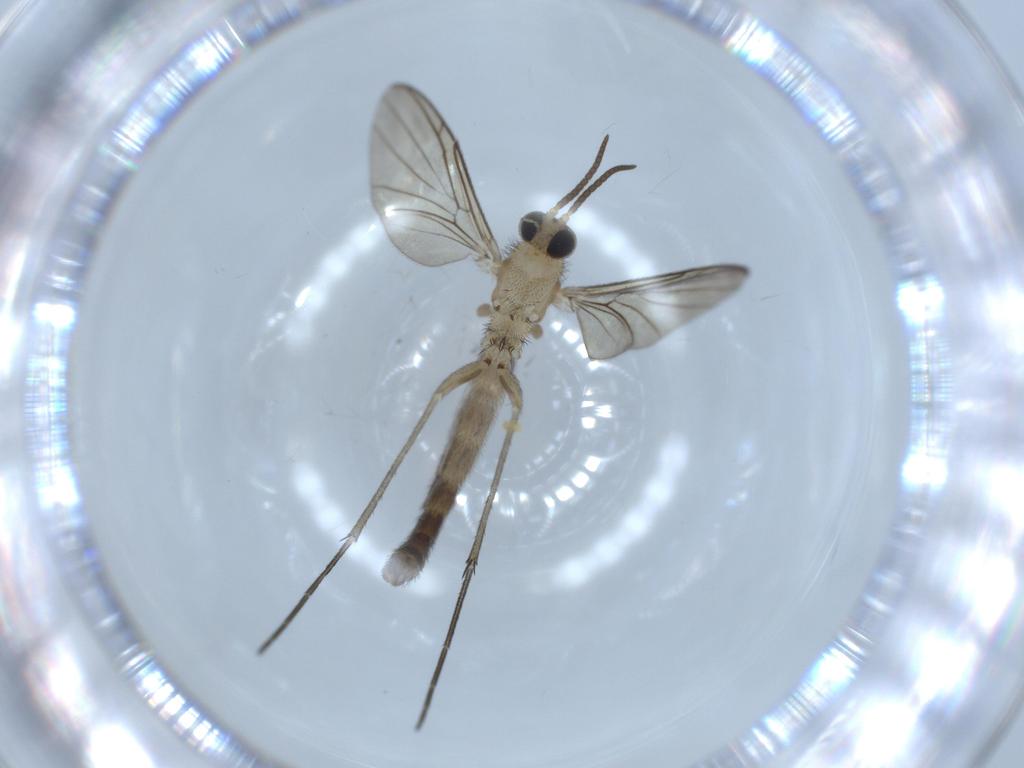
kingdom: Animalia
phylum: Arthropoda
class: Insecta
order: Diptera
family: Keroplatidae
